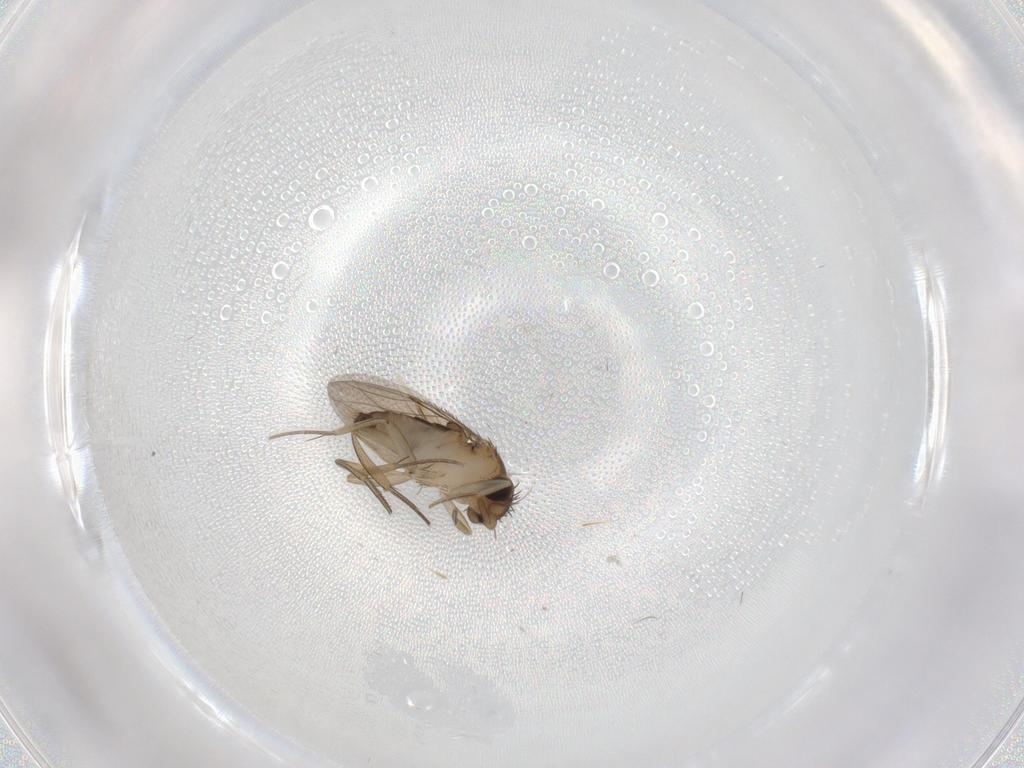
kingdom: Animalia
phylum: Arthropoda
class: Insecta
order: Diptera
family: Phoridae
